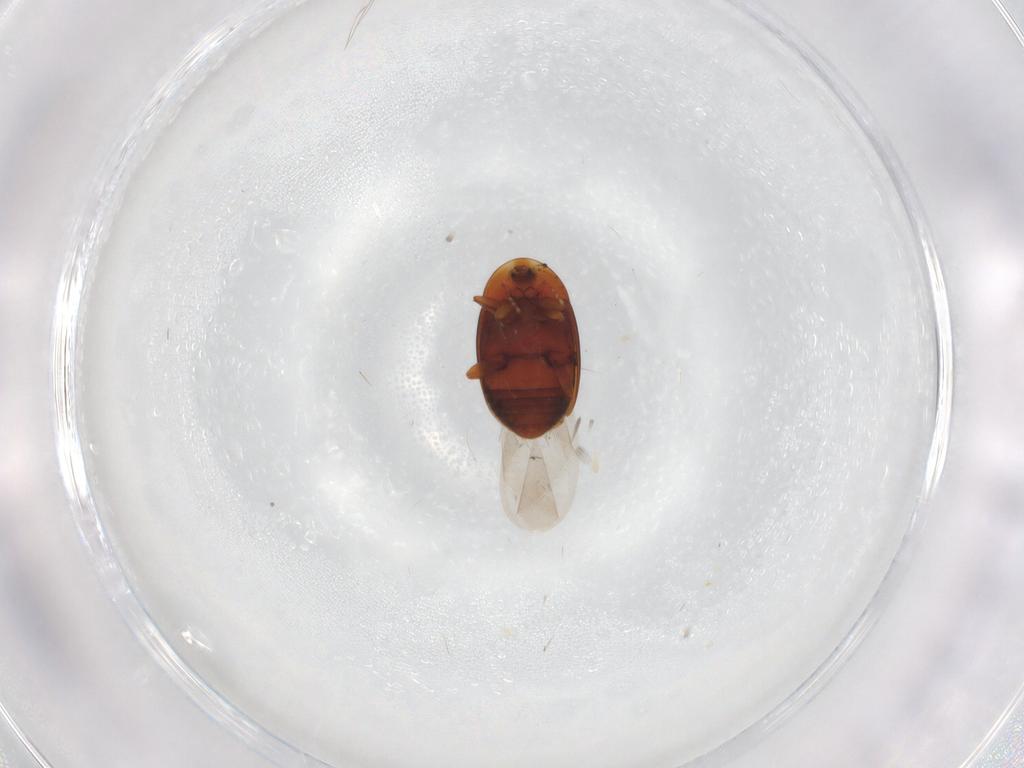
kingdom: Animalia
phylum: Arthropoda
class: Insecta
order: Coleoptera
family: Corylophidae
